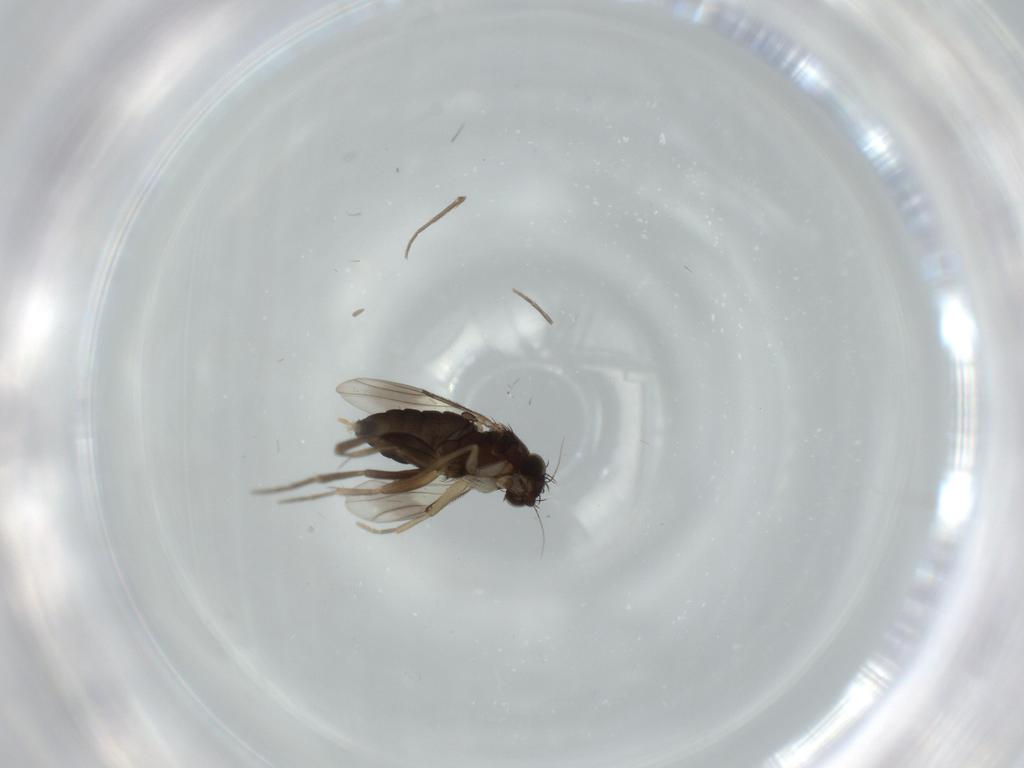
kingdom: Animalia
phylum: Arthropoda
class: Insecta
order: Diptera
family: Phoridae
